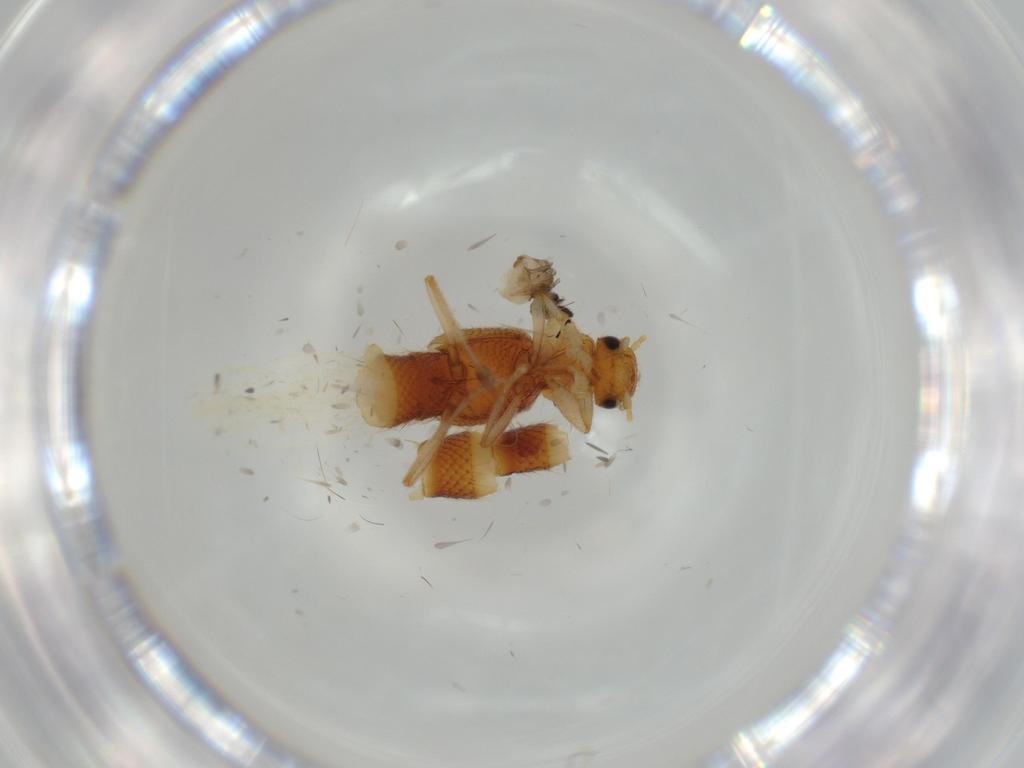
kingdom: Animalia
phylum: Arthropoda
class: Insecta
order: Coleoptera
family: Staphylinidae
